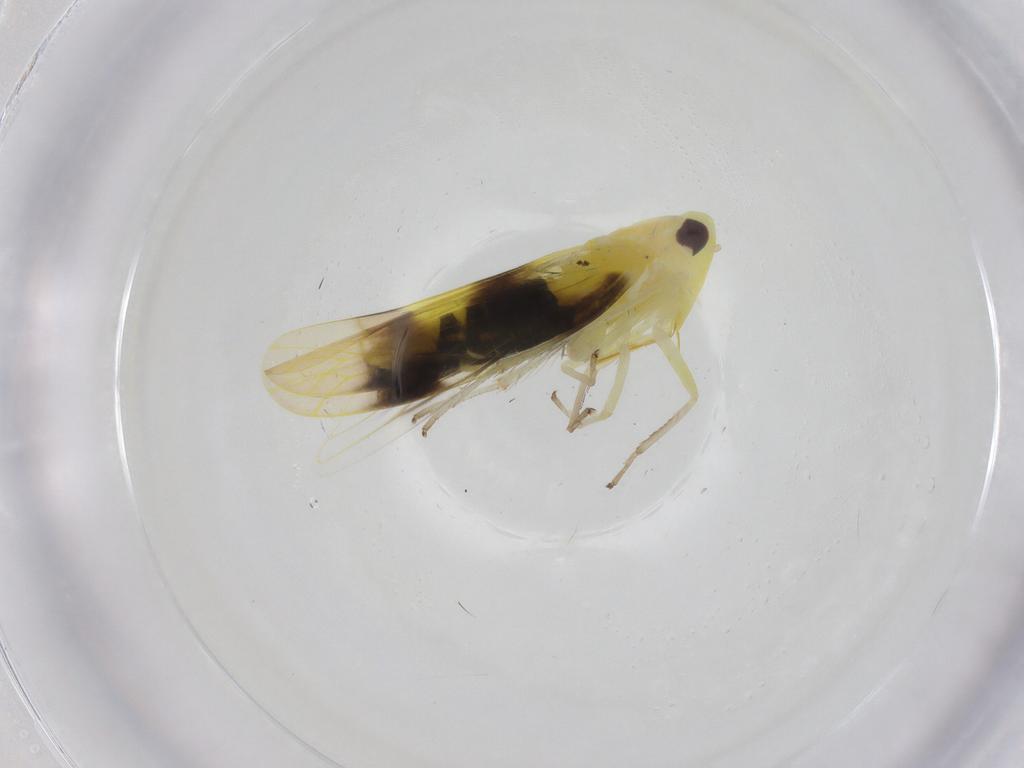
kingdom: Animalia
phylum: Arthropoda
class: Insecta
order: Hemiptera
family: Cicadellidae
